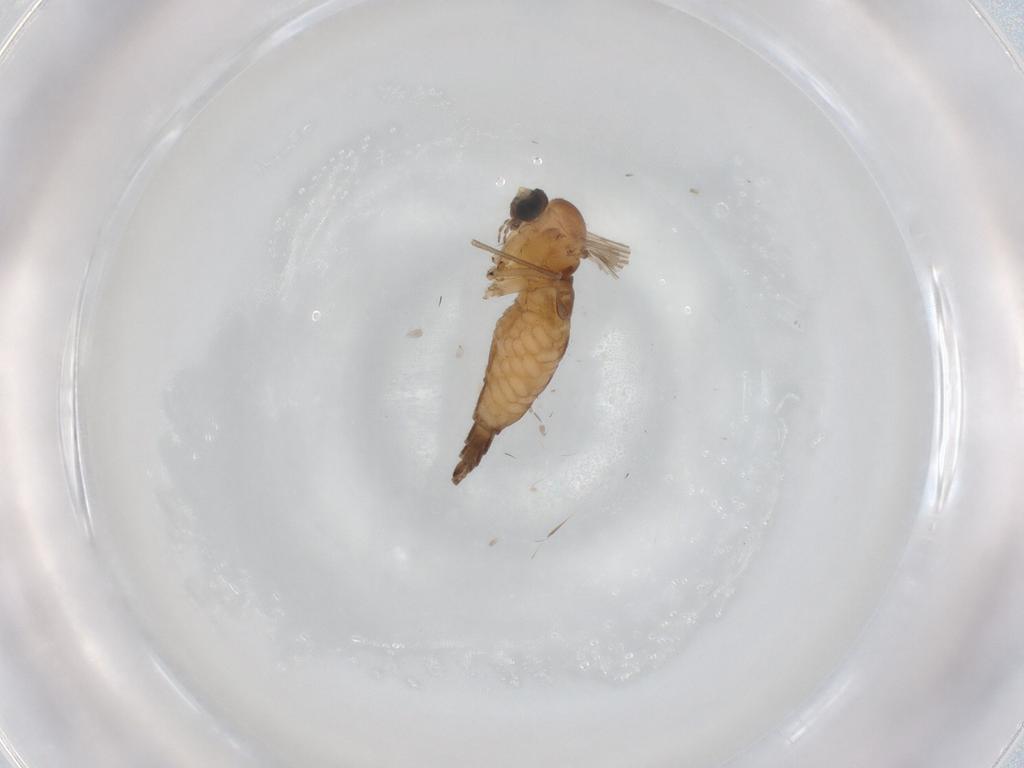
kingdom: Animalia
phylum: Arthropoda
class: Insecta
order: Diptera
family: Sciaridae
